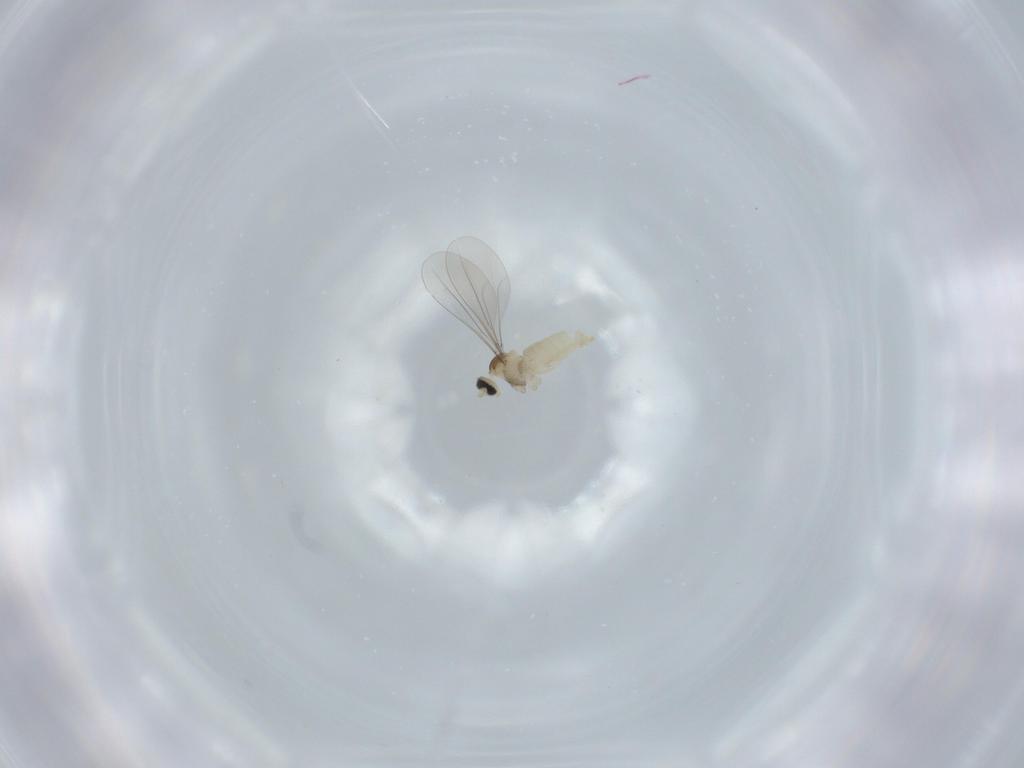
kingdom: Animalia
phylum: Arthropoda
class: Insecta
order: Diptera
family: Cecidomyiidae
